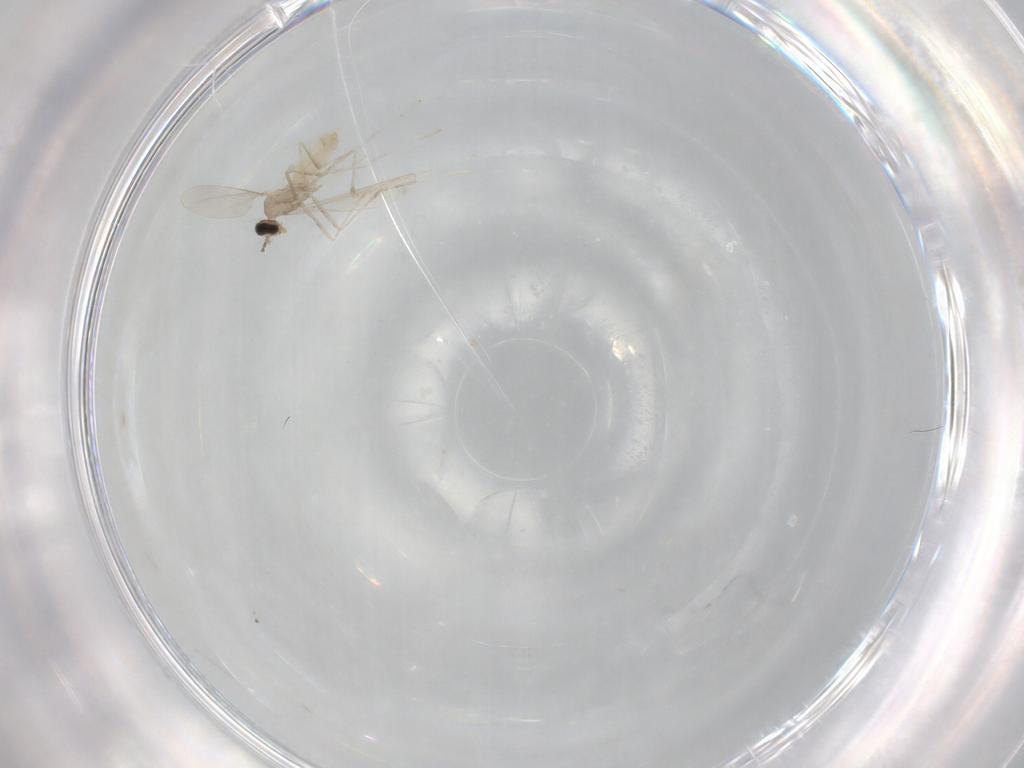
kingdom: Animalia
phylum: Arthropoda
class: Insecta
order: Diptera
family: Cecidomyiidae
